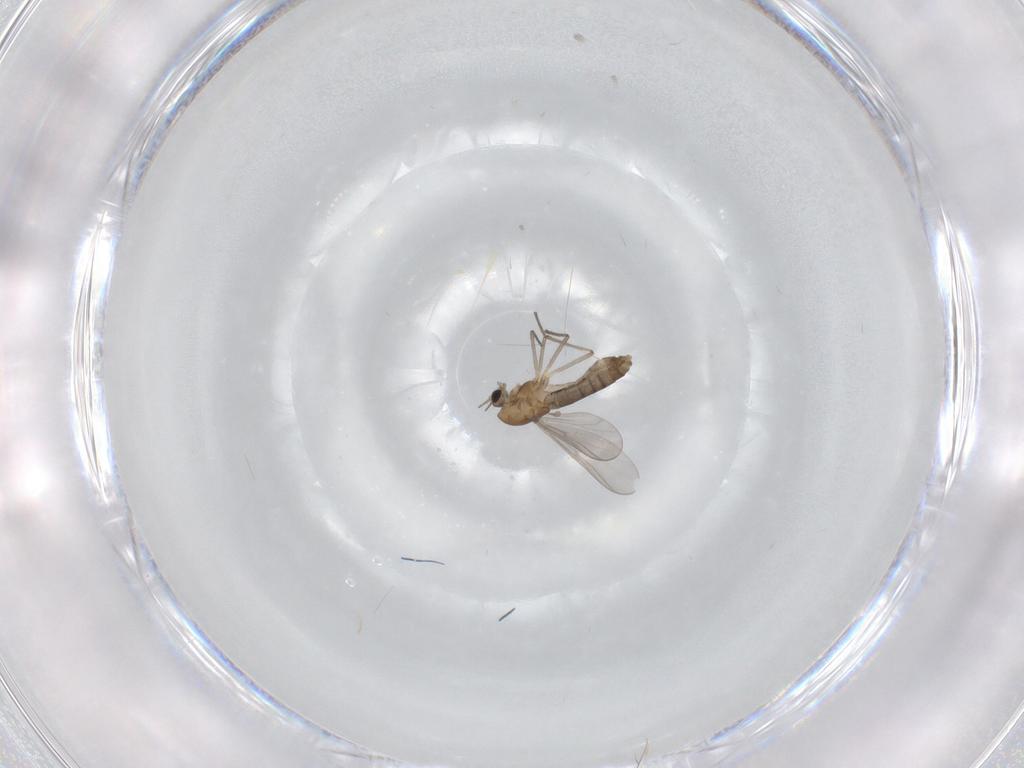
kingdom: Animalia
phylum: Arthropoda
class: Insecta
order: Diptera
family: Chironomidae
